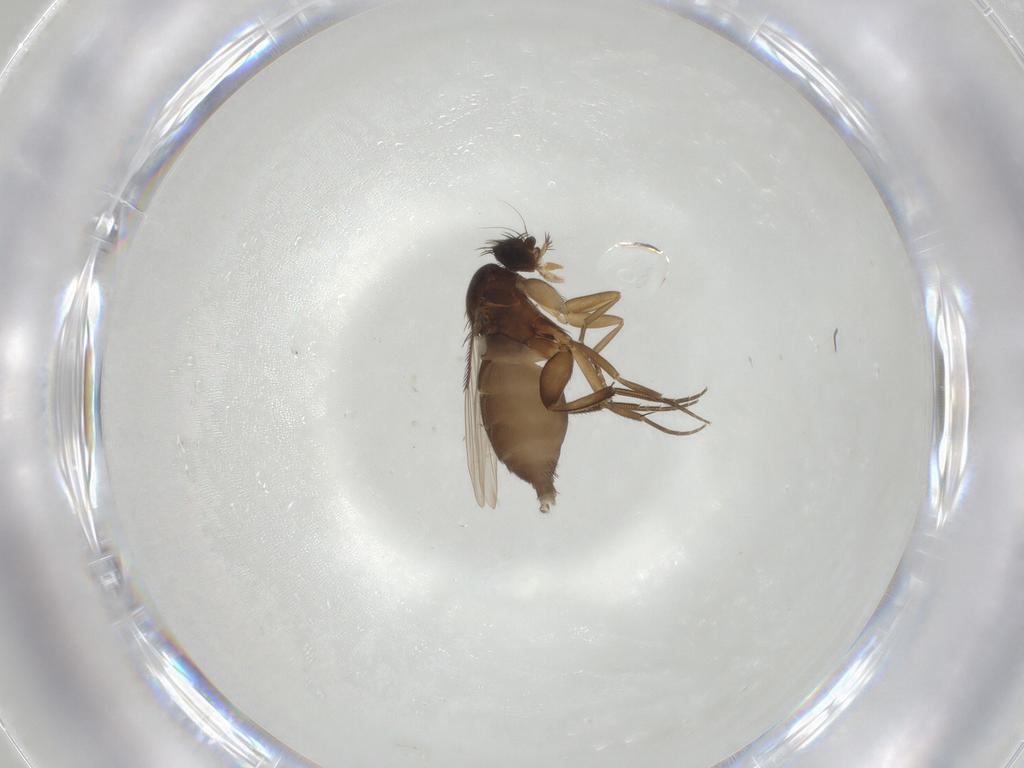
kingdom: Animalia
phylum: Arthropoda
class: Insecta
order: Diptera
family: Phoridae
